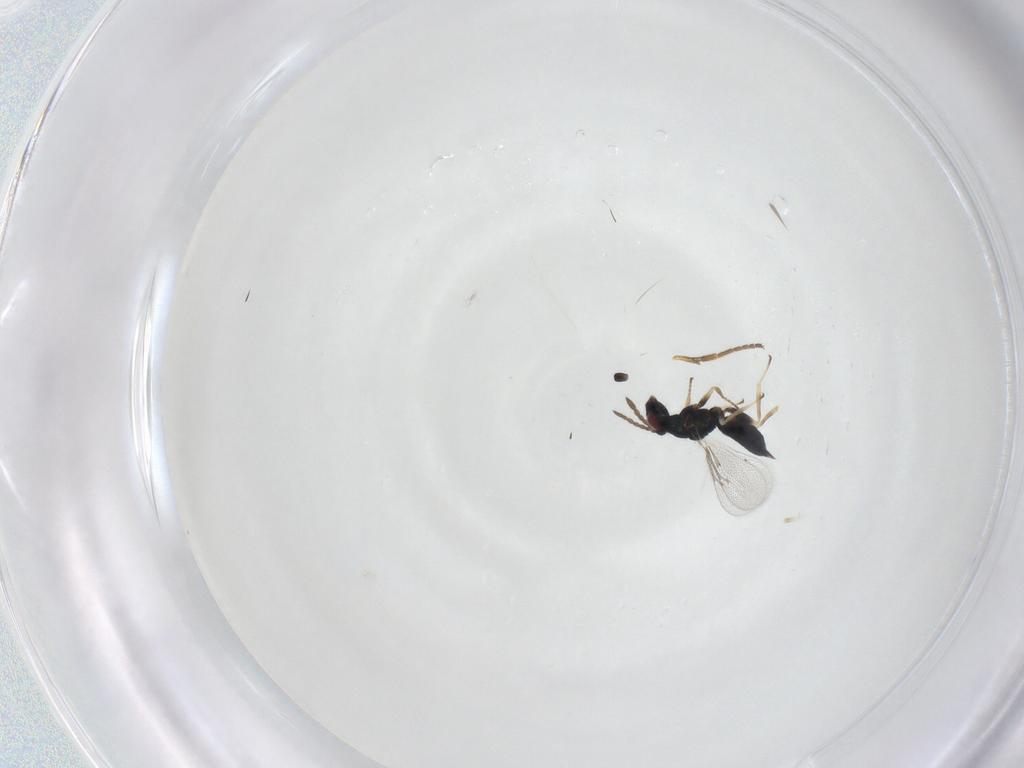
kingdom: Animalia
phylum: Arthropoda
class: Insecta
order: Hymenoptera
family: Eulophidae
